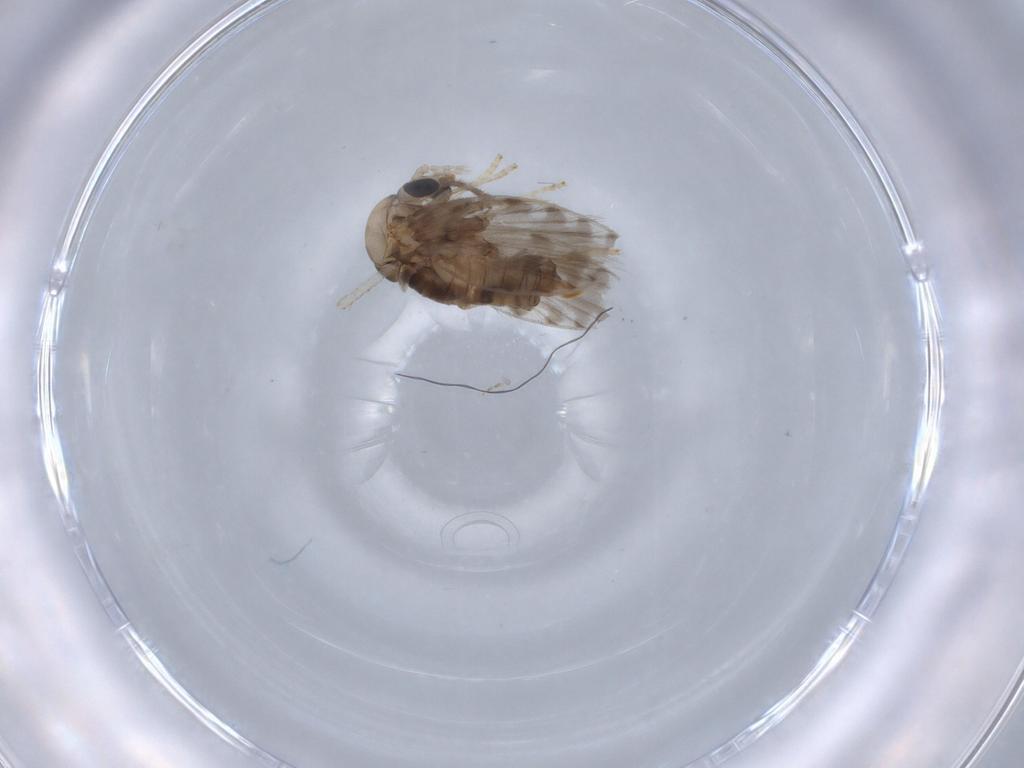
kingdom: Animalia
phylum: Arthropoda
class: Insecta
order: Diptera
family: Psychodidae
